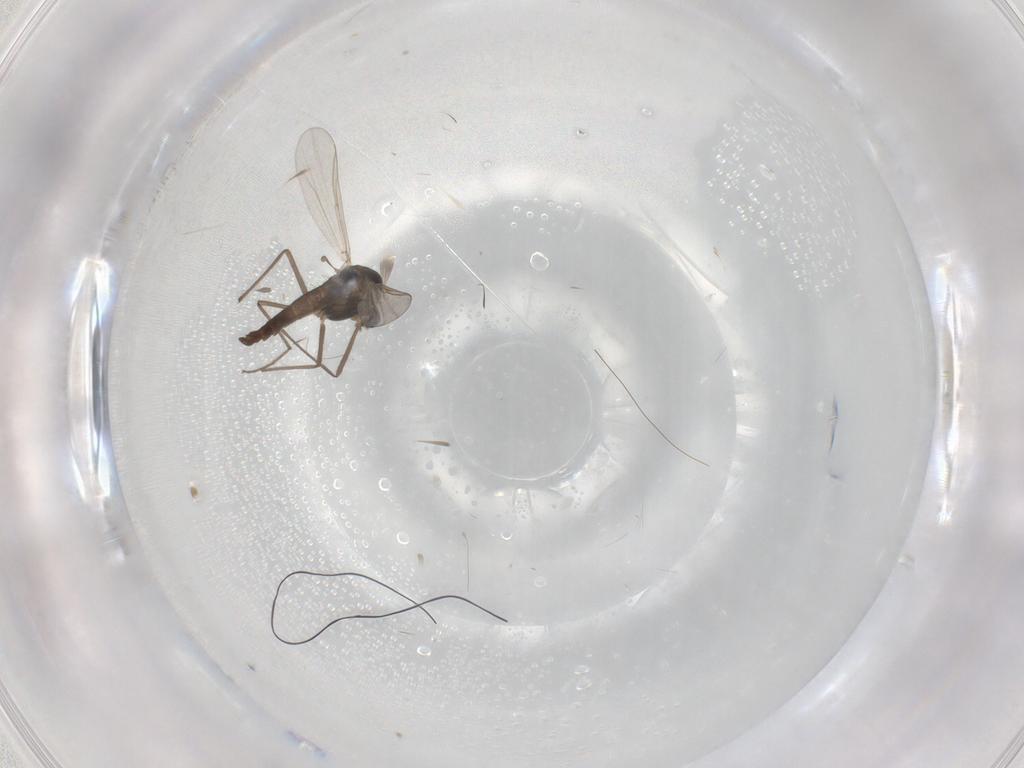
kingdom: Animalia
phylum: Arthropoda
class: Insecta
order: Diptera
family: Chironomidae
